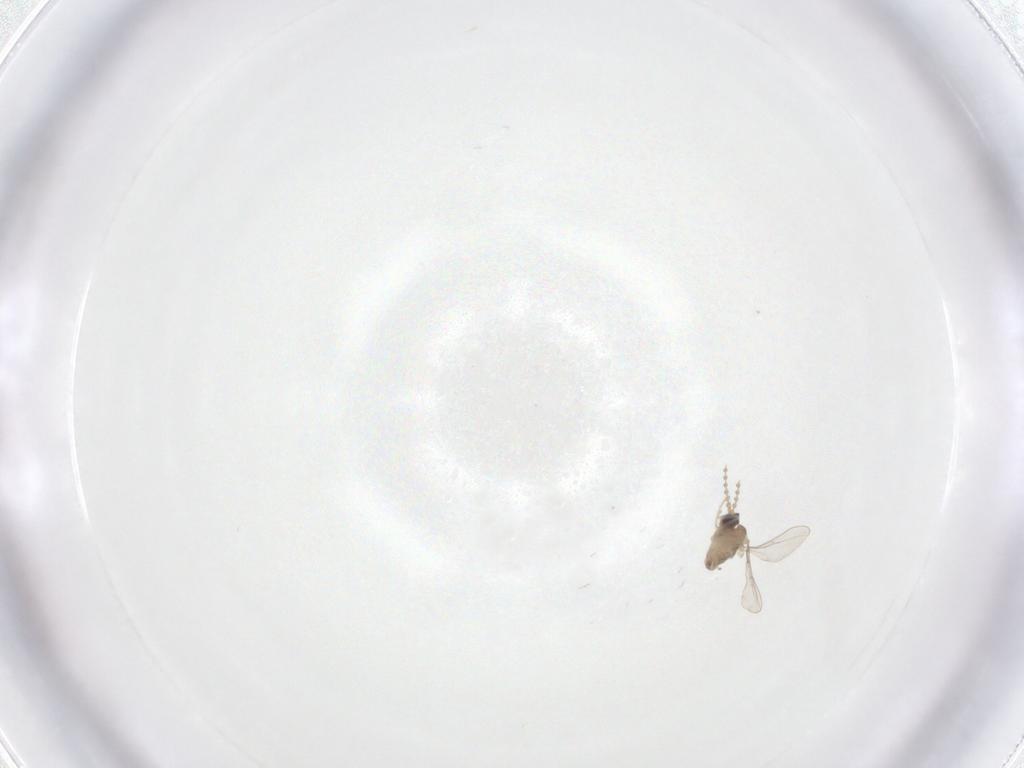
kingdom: Animalia
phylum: Arthropoda
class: Insecta
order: Diptera
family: Cecidomyiidae
